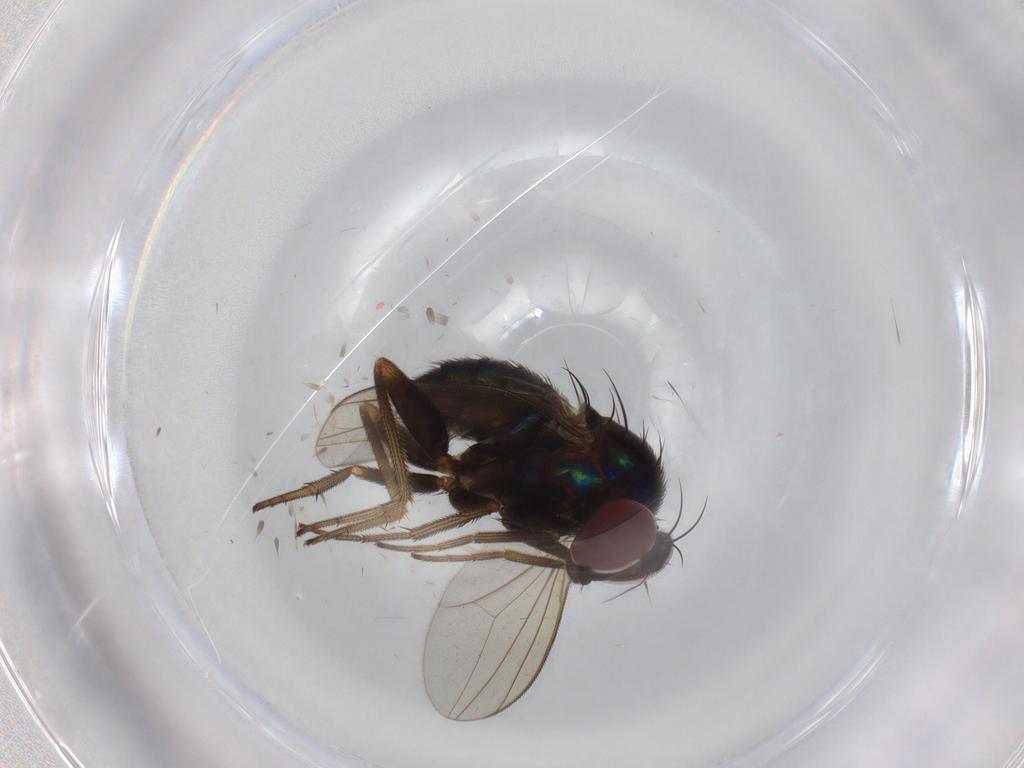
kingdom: Animalia
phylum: Arthropoda
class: Insecta
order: Diptera
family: Dolichopodidae
